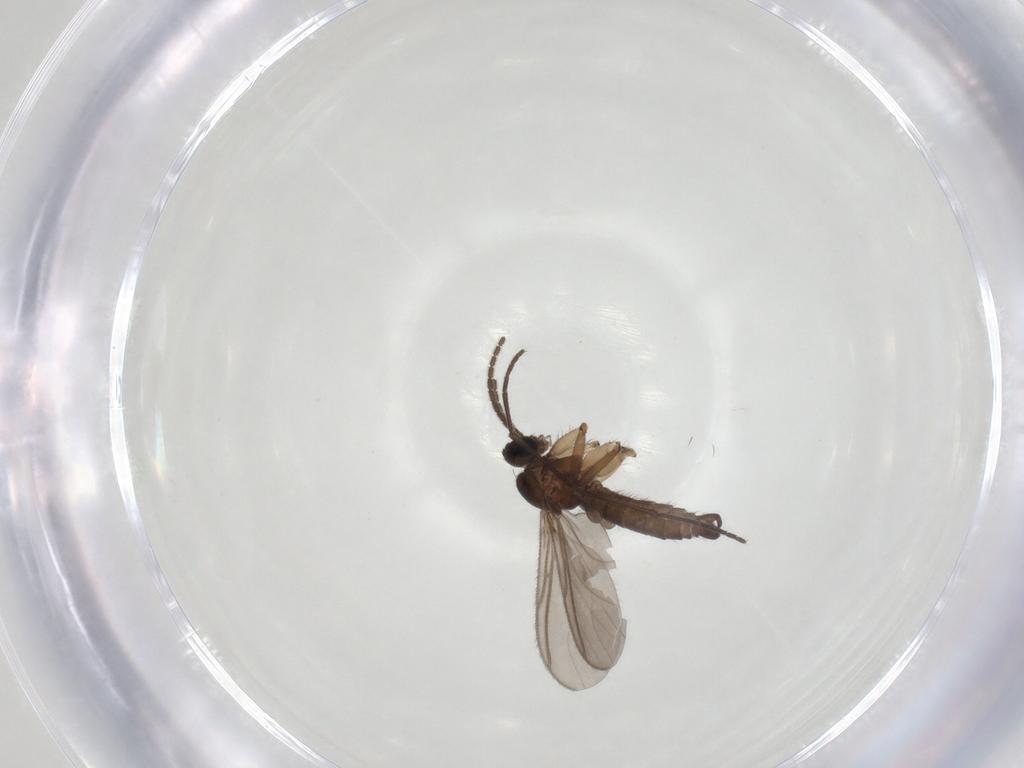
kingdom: Animalia
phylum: Arthropoda
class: Insecta
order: Diptera
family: Sciaridae
